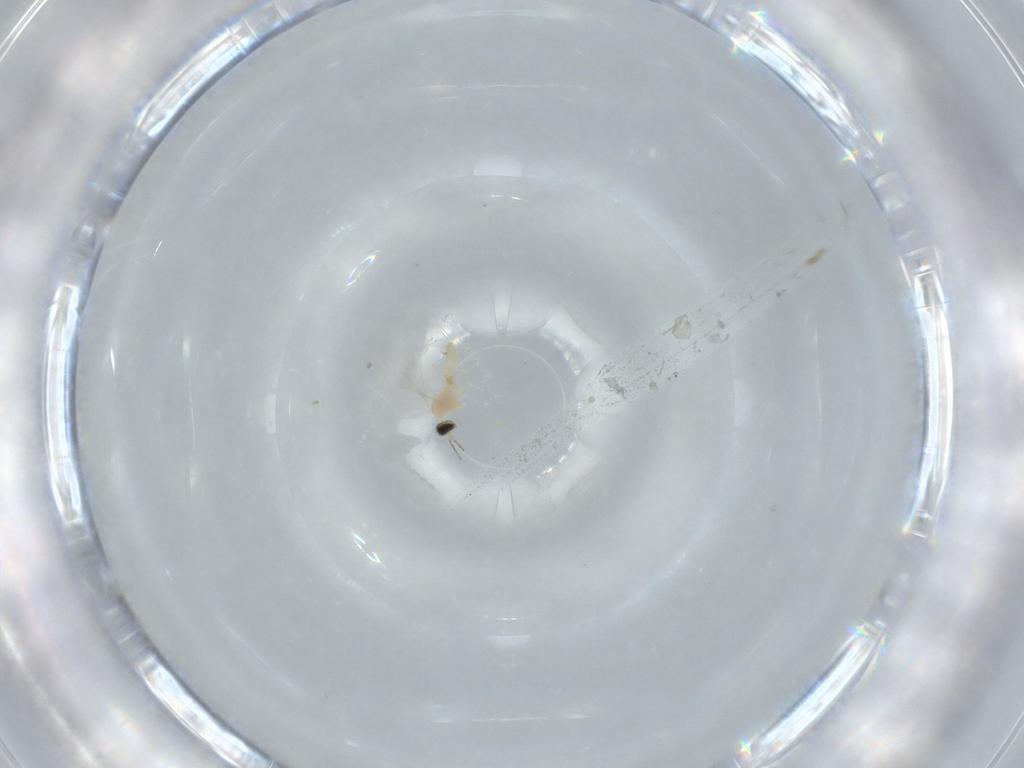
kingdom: Animalia
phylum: Arthropoda
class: Insecta
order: Diptera
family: Cecidomyiidae
